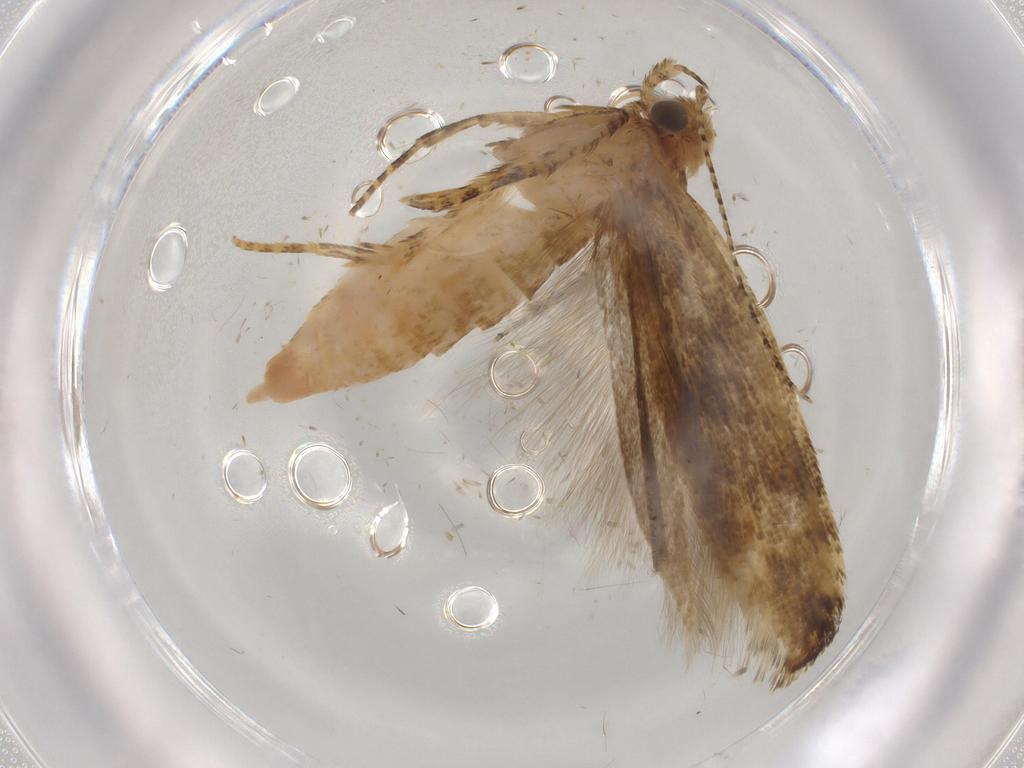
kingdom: Animalia
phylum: Arthropoda
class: Insecta
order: Lepidoptera
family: Gelechiidae
